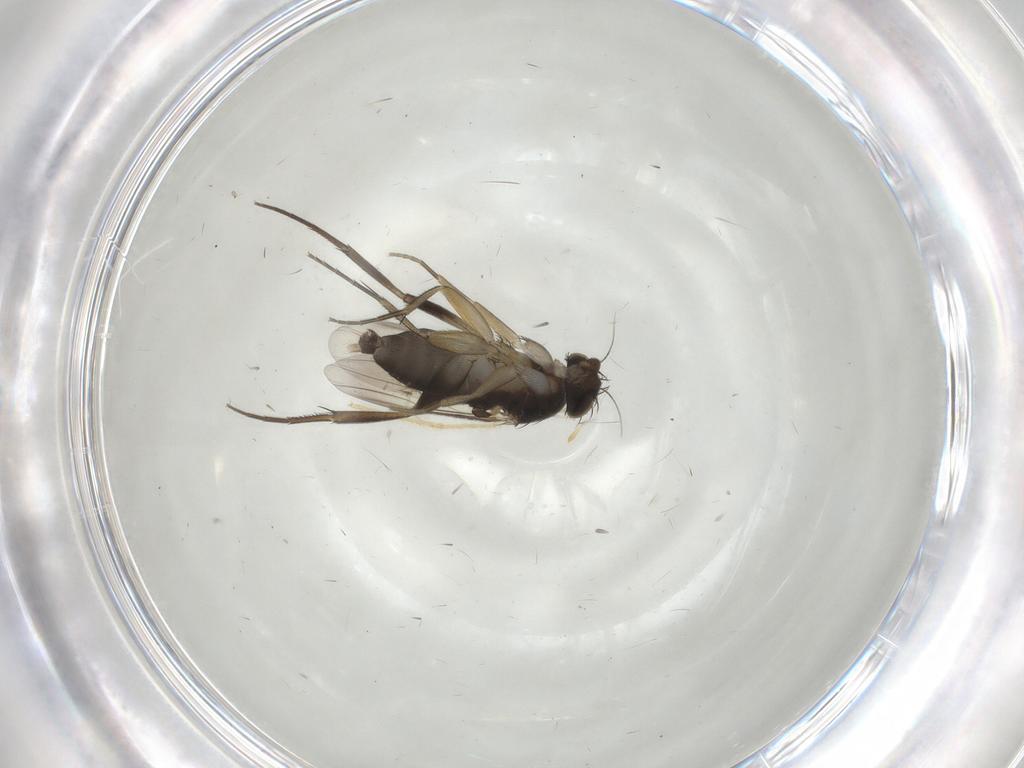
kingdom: Animalia
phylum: Arthropoda
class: Insecta
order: Diptera
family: Phoridae
